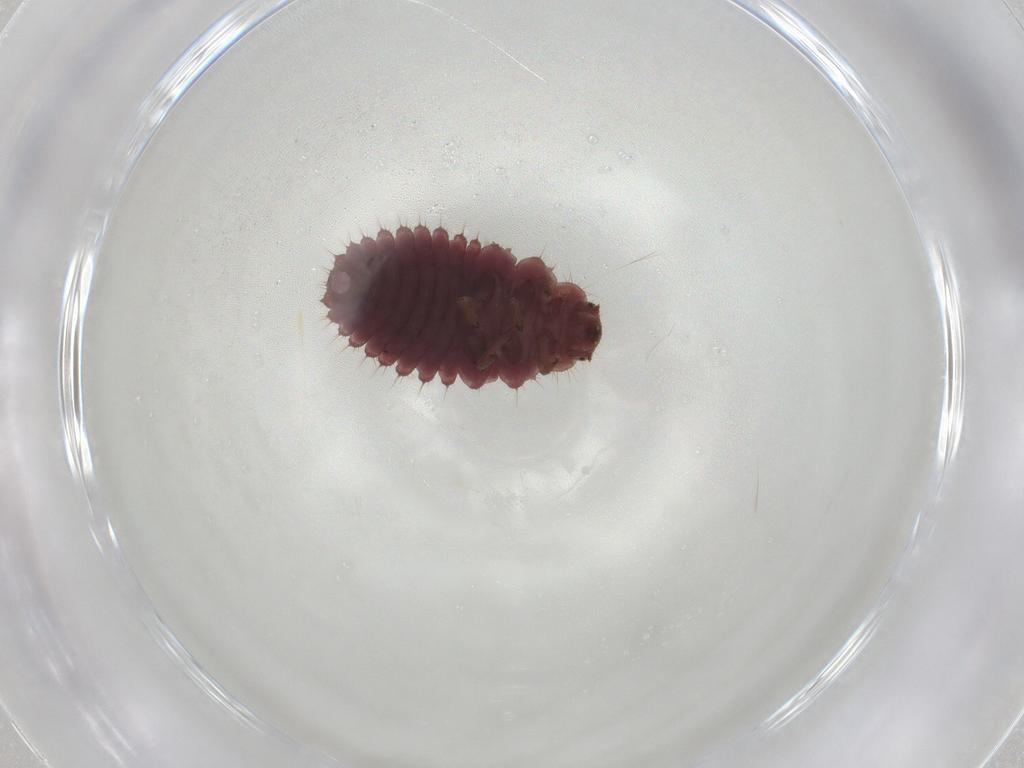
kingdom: Animalia
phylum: Arthropoda
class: Insecta
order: Coleoptera
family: Coccinellidae
